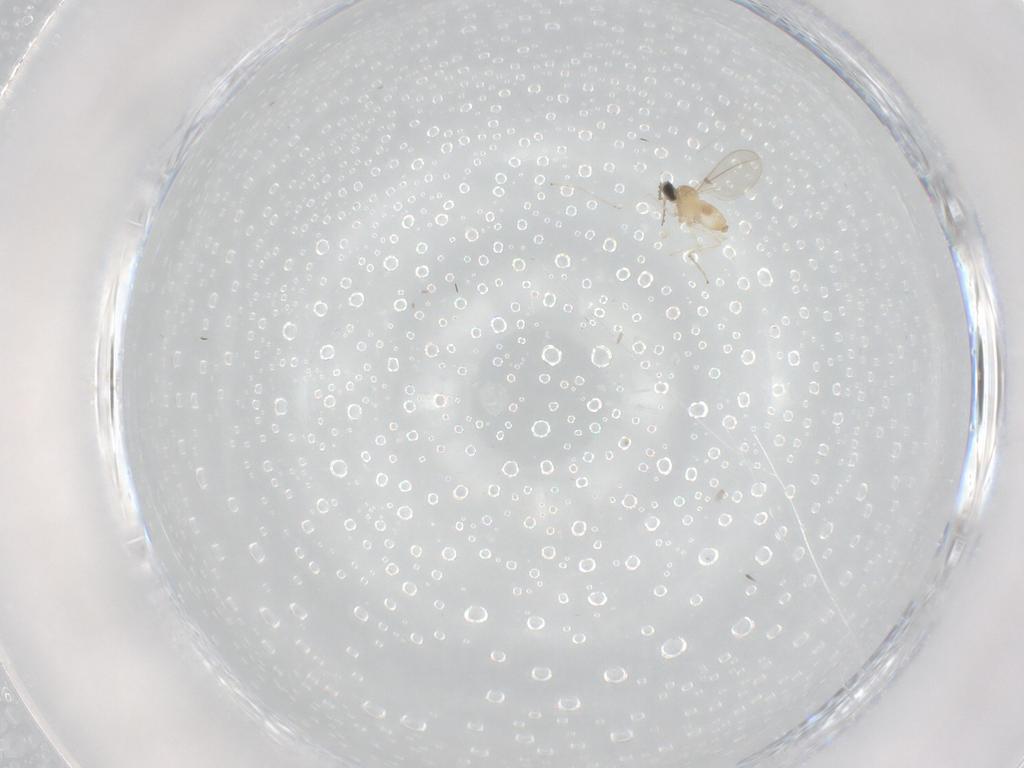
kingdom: Animalia
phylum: Arthropoda
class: Insecta
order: Diptera
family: Cecidomyiidae
